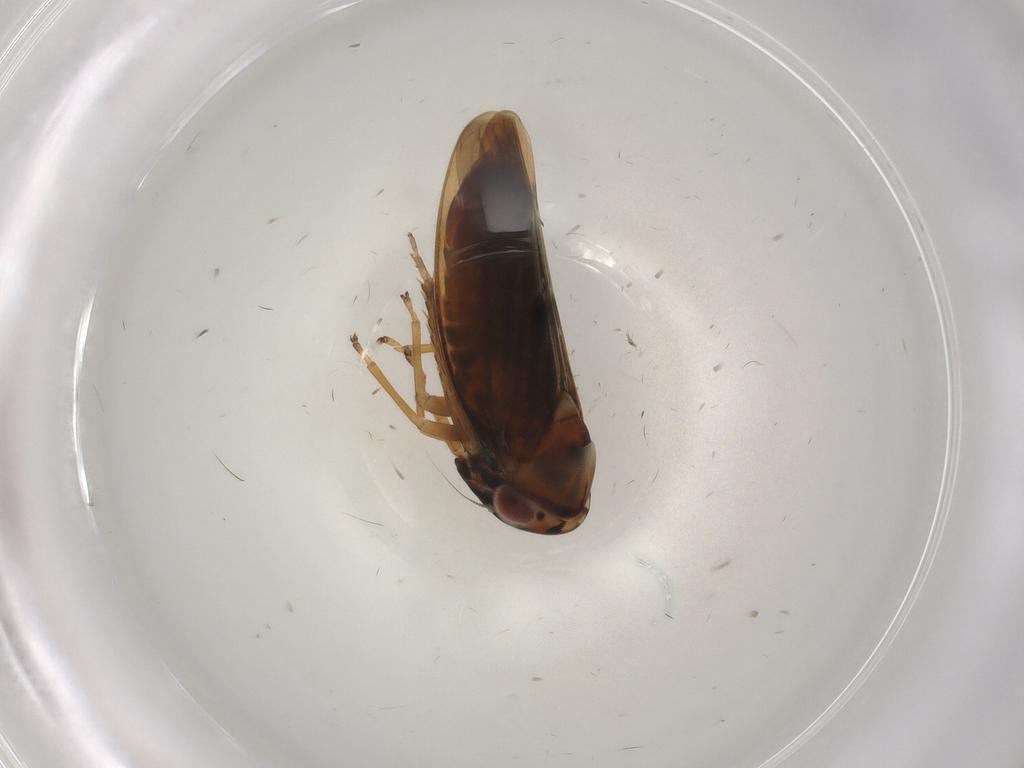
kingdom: Animalia
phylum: Arthropoda
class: Insecta
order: Hemiptera
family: Cicadellidae
